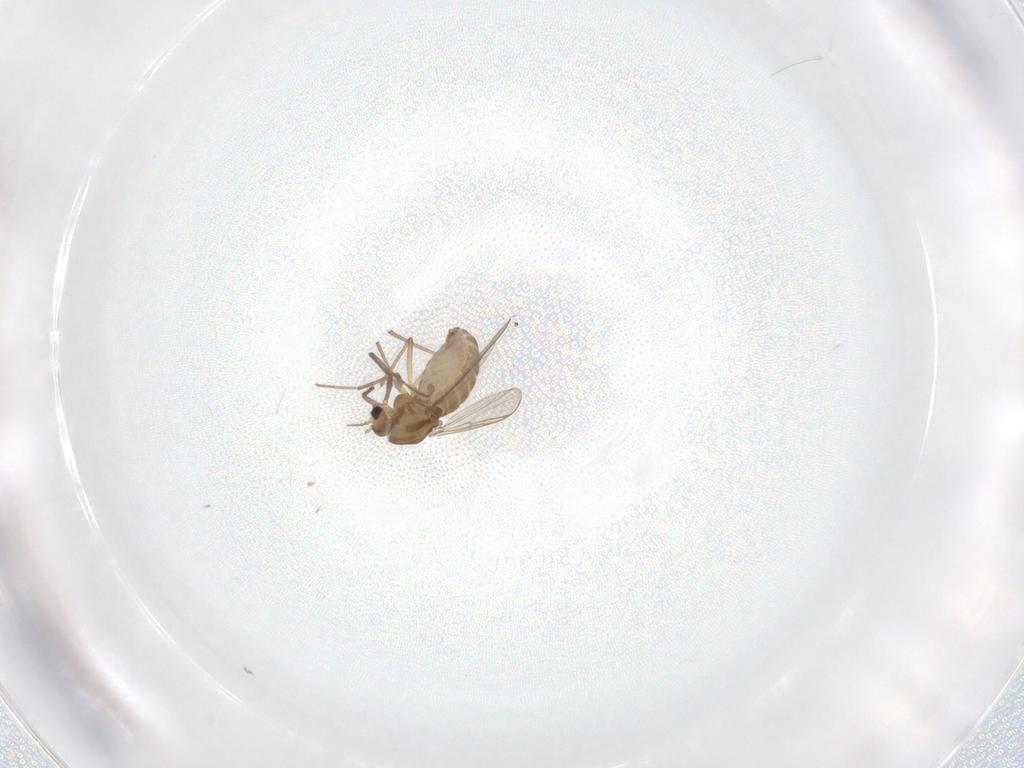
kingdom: Animalia
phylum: Arthropoda
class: Insecta
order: Diptera
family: Chironomidae
